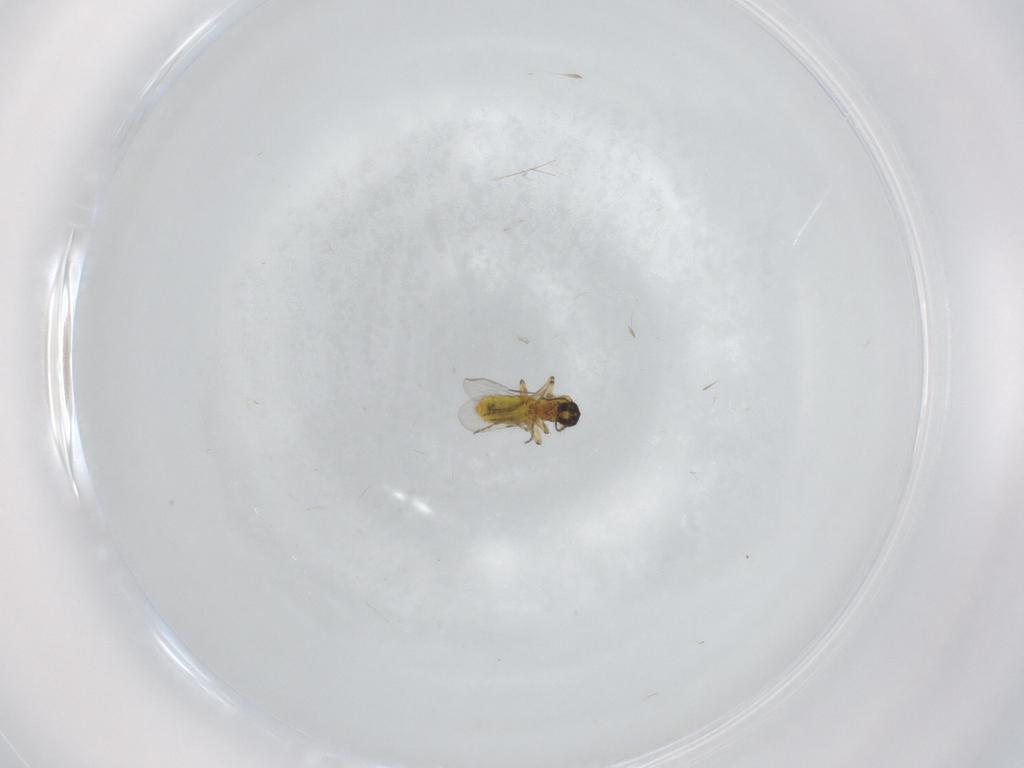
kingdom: Animalia
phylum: Arthropoda
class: Insecta
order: Diptera
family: Ceratopogonidae
